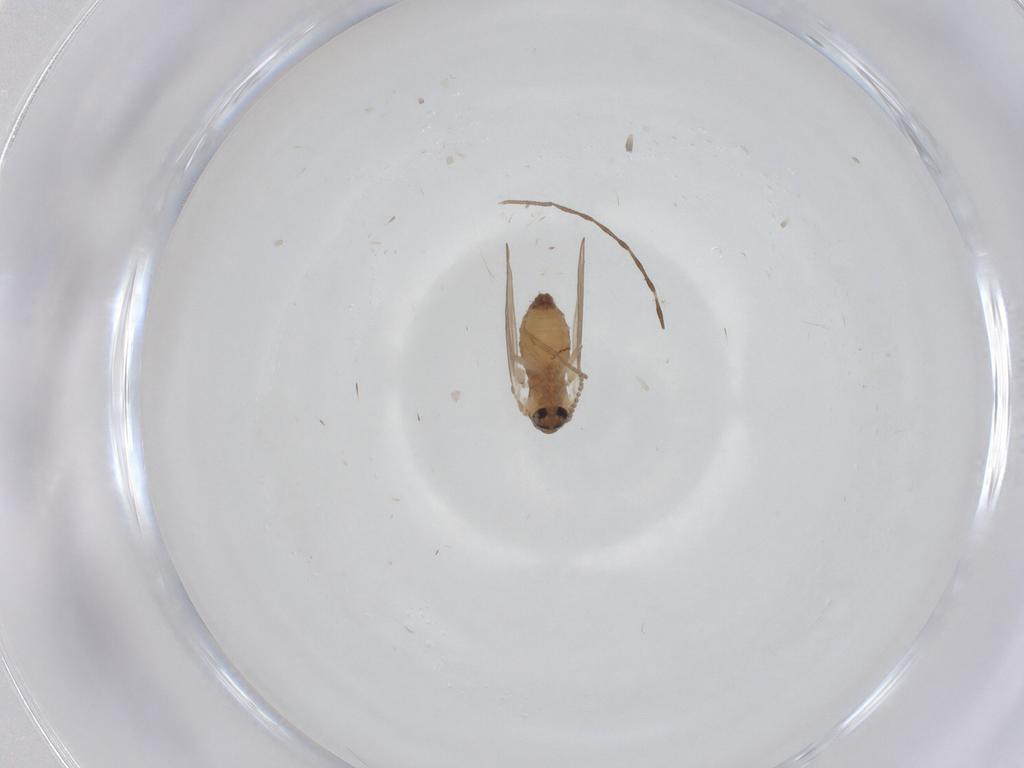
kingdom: Animalia
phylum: Arthropoda
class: Insecta
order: Diptera
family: Psychodidae
